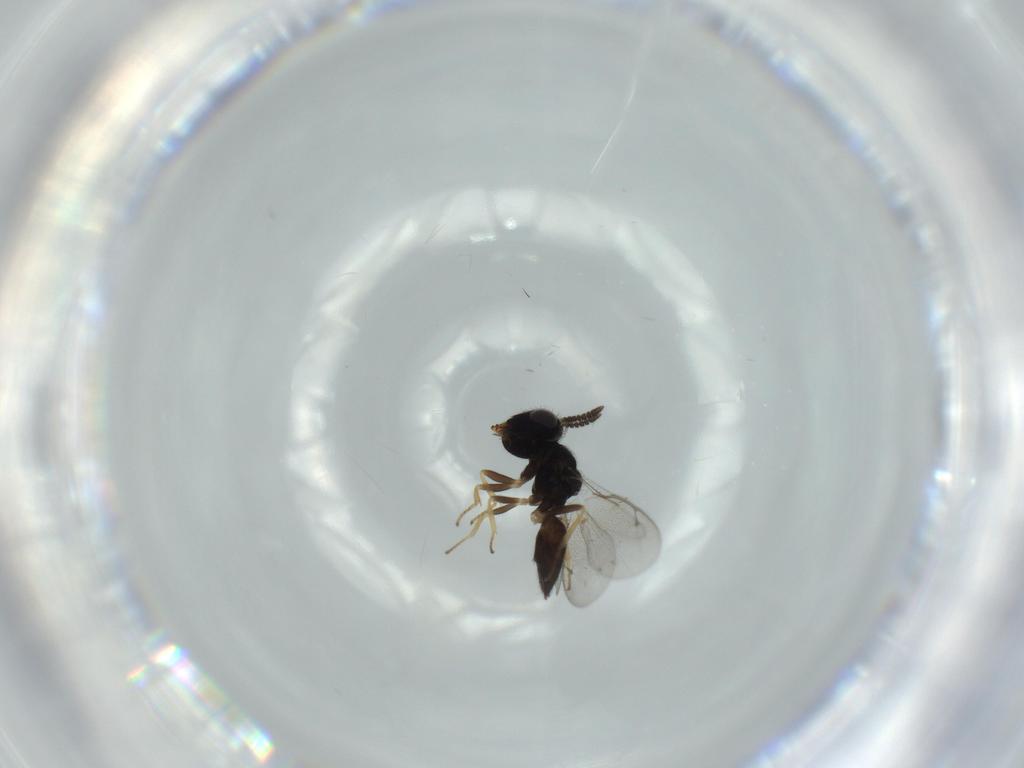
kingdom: Animalia
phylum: Arthropoda
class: Insecta
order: Hymenoptera
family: Pteromalidae
